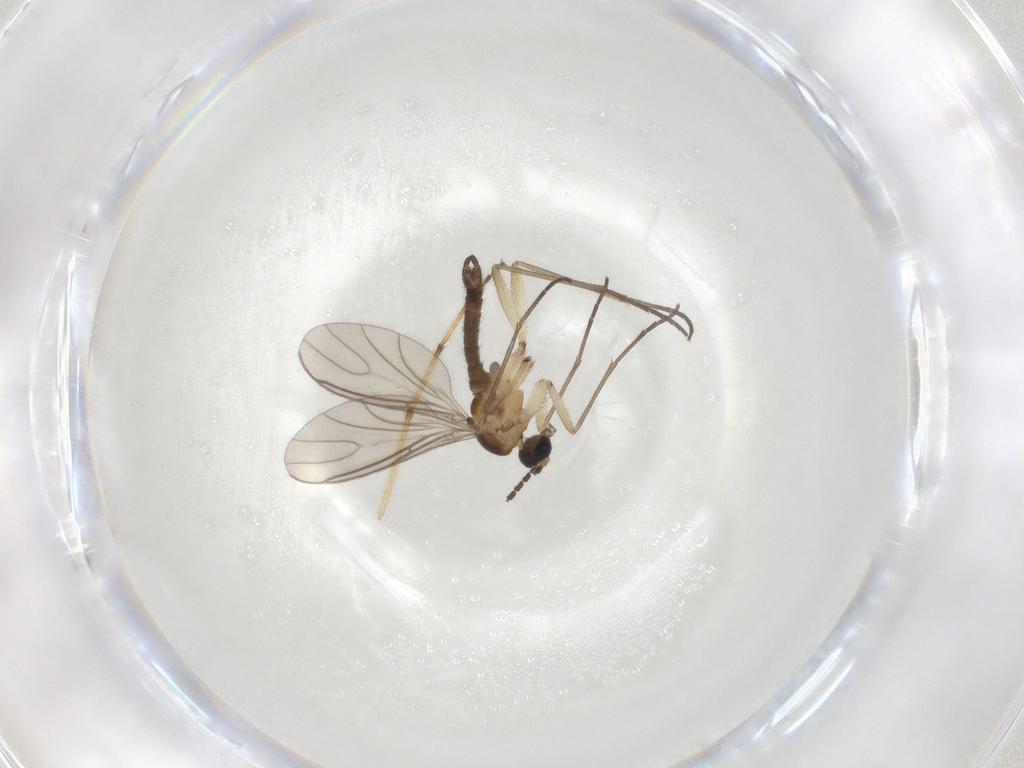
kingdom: Animalia
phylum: Arthropoda
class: Insecta
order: Diptera
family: Sciaridae
